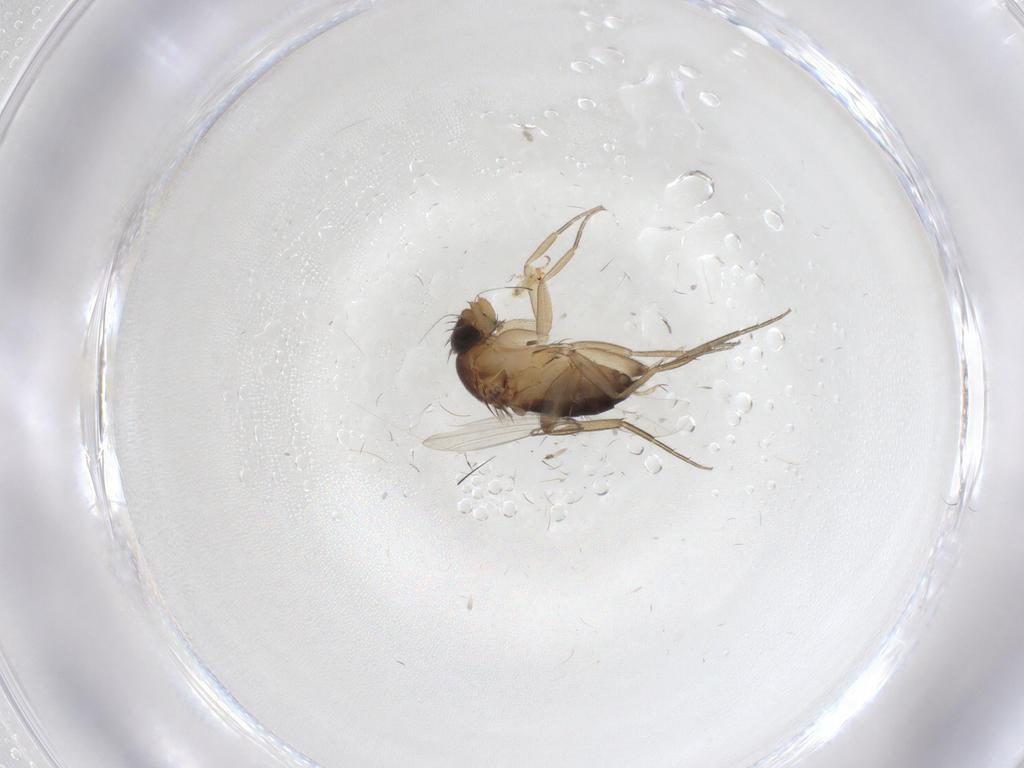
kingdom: Animalia
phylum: Arthropoda
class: Collembola
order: Entomobryomorpha
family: Entomobryidae
